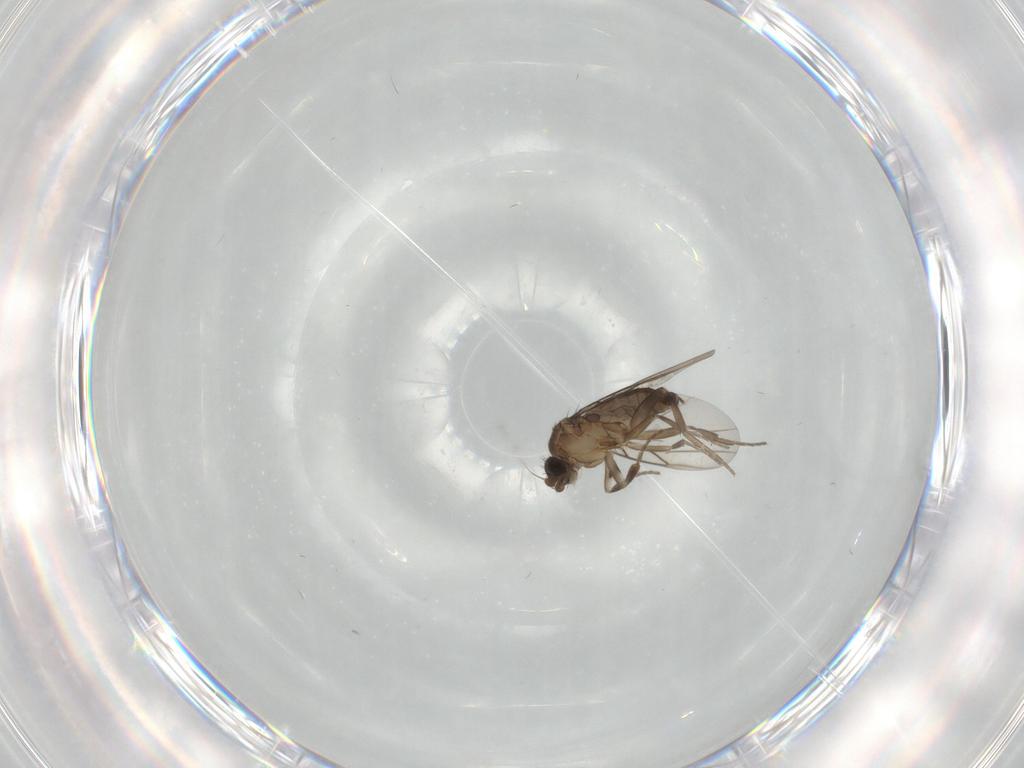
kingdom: Animalia
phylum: Arthropoda
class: Insecta
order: Diptera
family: Phoridae
